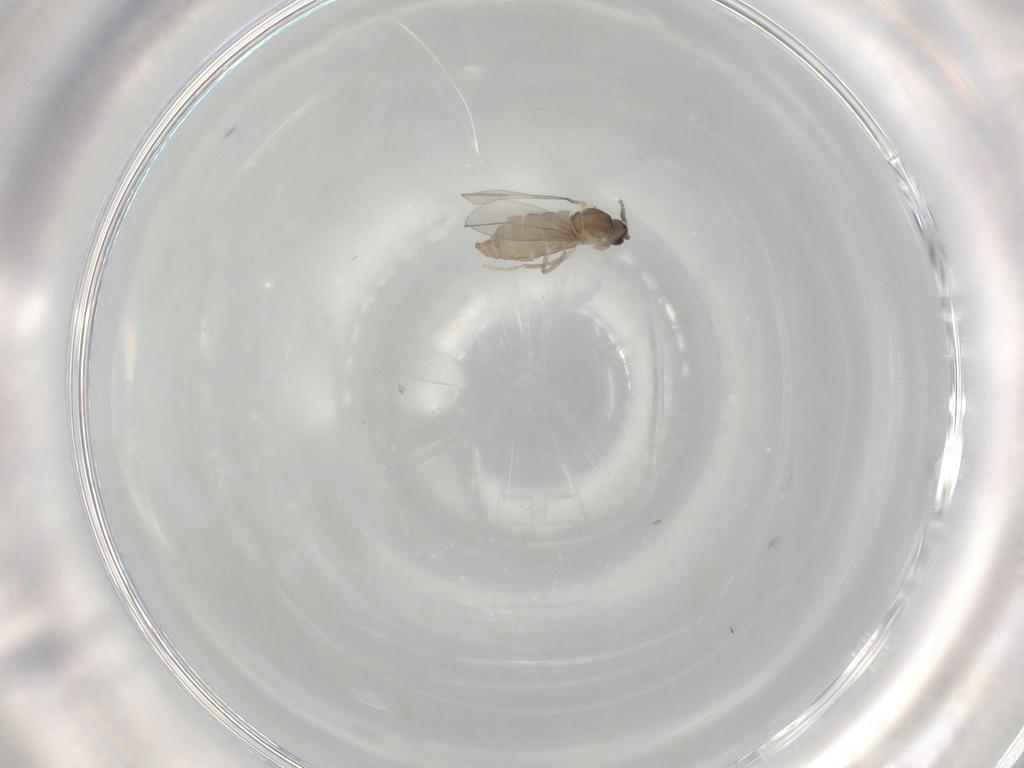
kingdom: Animalia
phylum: Arthropoda
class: Insecta
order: Diptera
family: Cecidomyiidae
